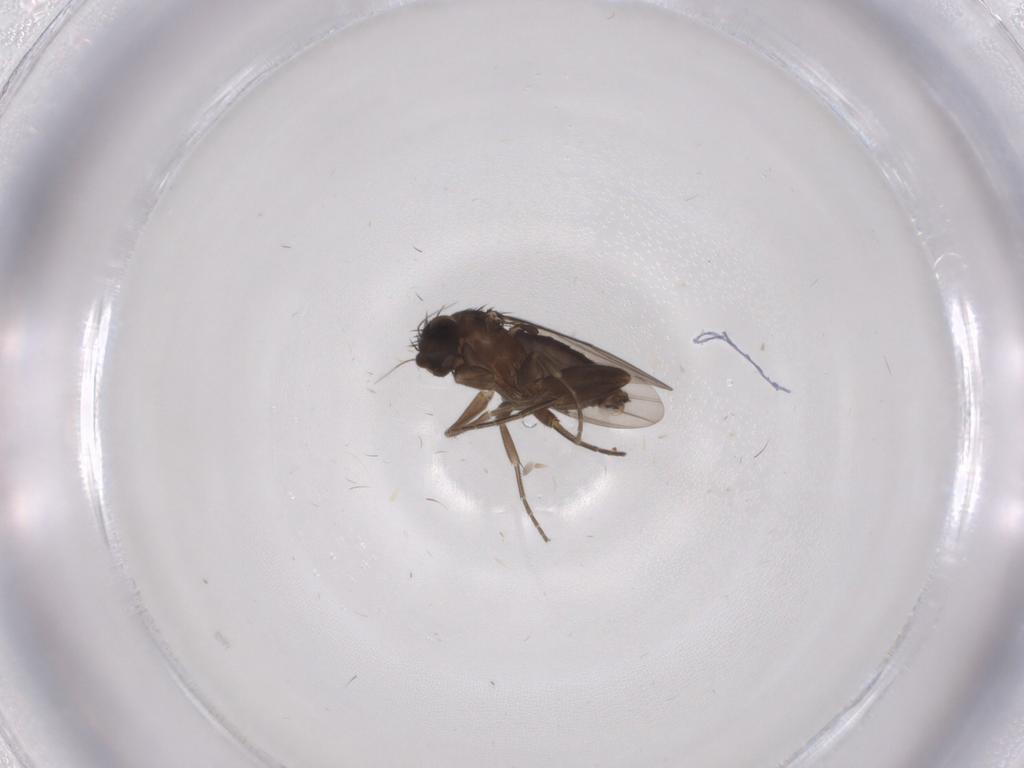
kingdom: Animalia
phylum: Arthropoda
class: Insecta
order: Diptera
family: Phoridae
